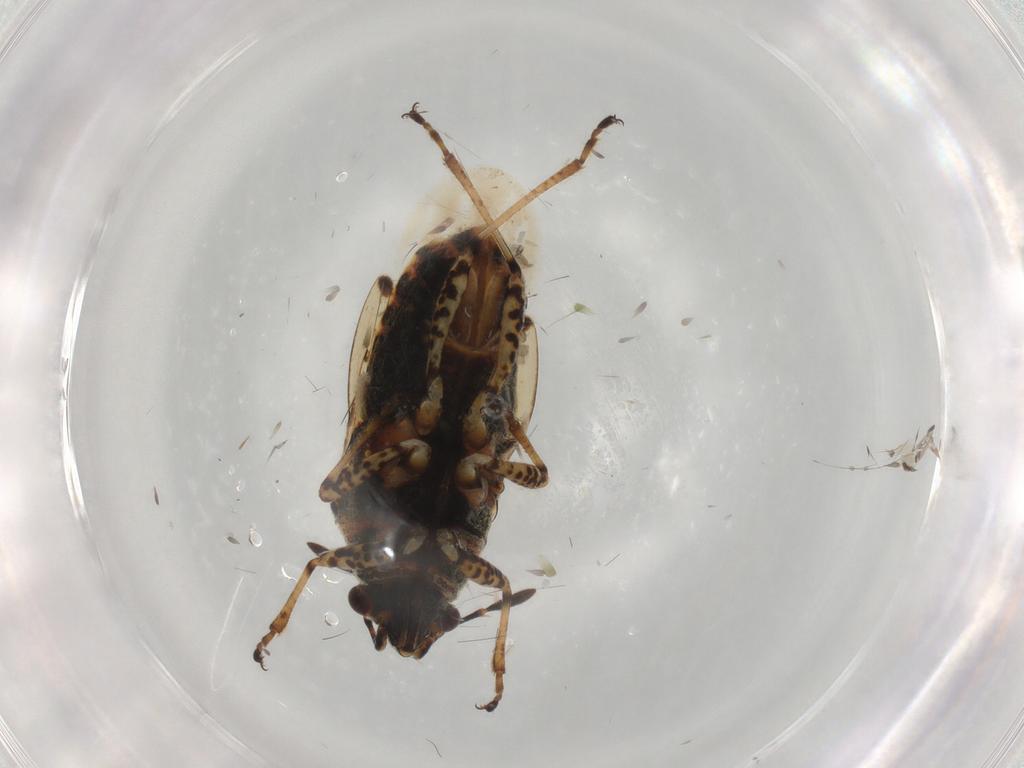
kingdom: Animalia
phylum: Arthropoda
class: Insecta
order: Hemiptera
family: Lygaeidae
